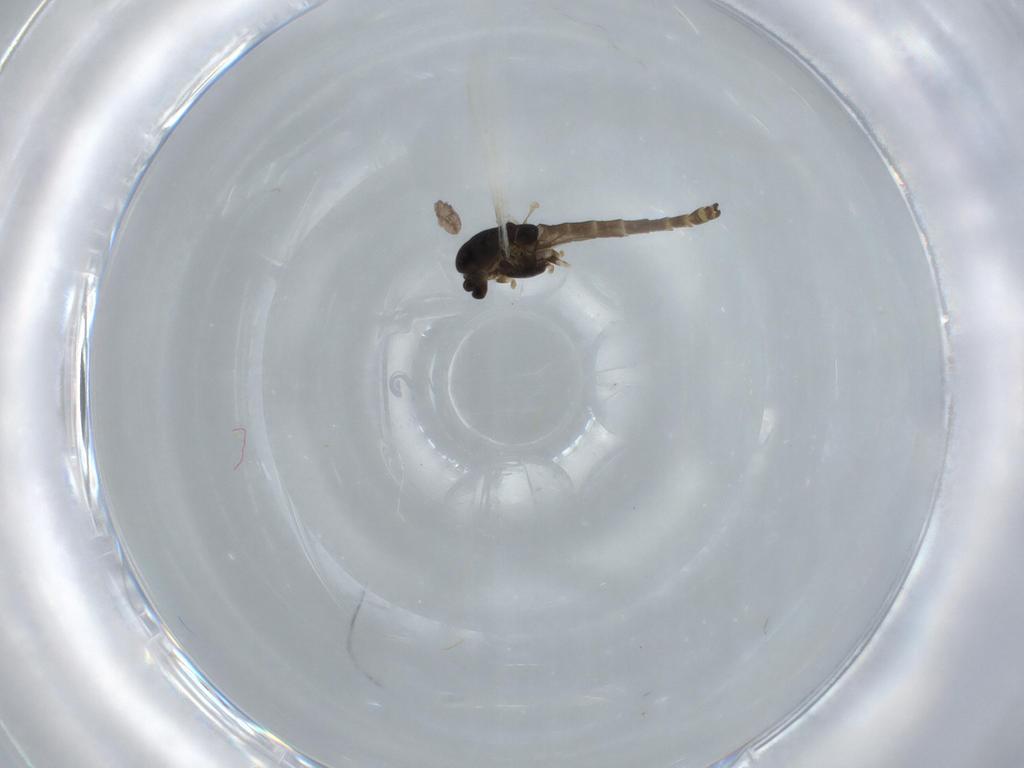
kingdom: Animalia
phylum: Arthropoda
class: Insecta
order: Diptera
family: Chironomidae
